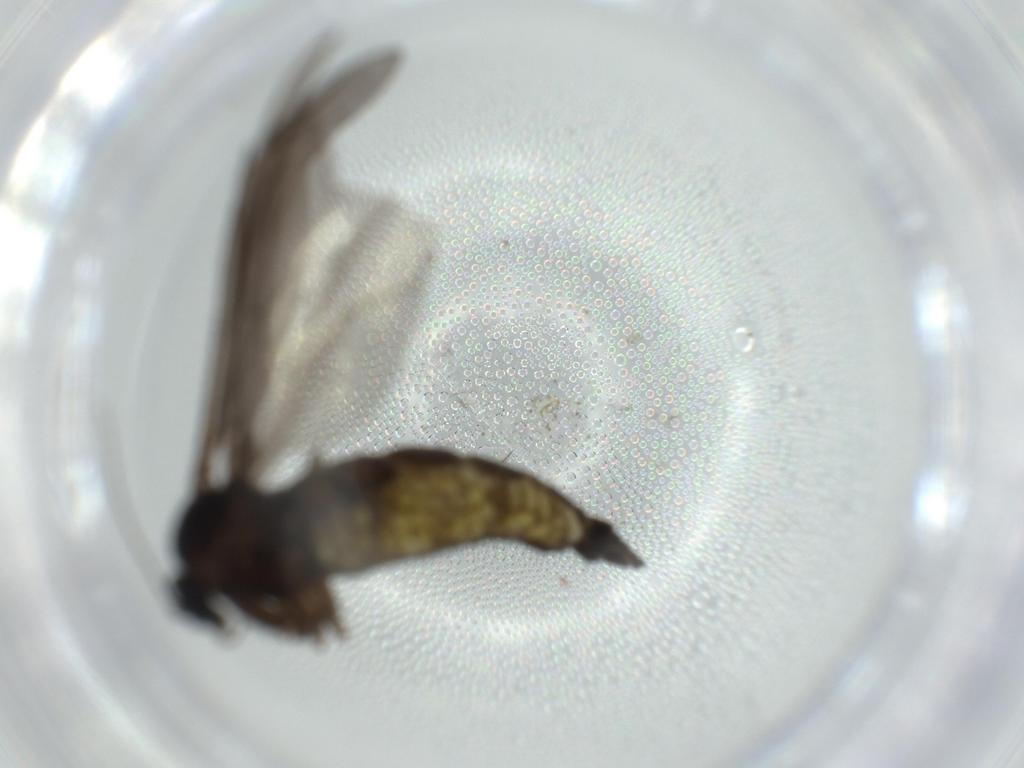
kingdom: Animalia
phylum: Arthropoda
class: Insecta
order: Diptera
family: Sciaridae
